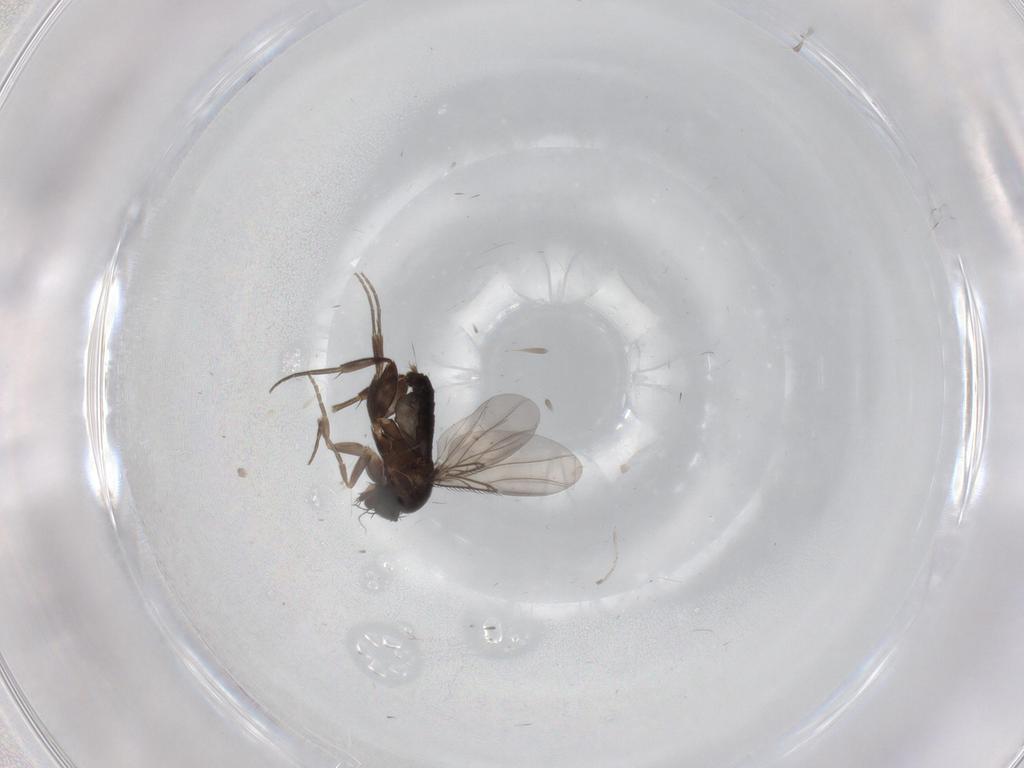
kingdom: Animalia
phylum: Arthropoda
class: Insecta
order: Diptera
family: Phoridae
